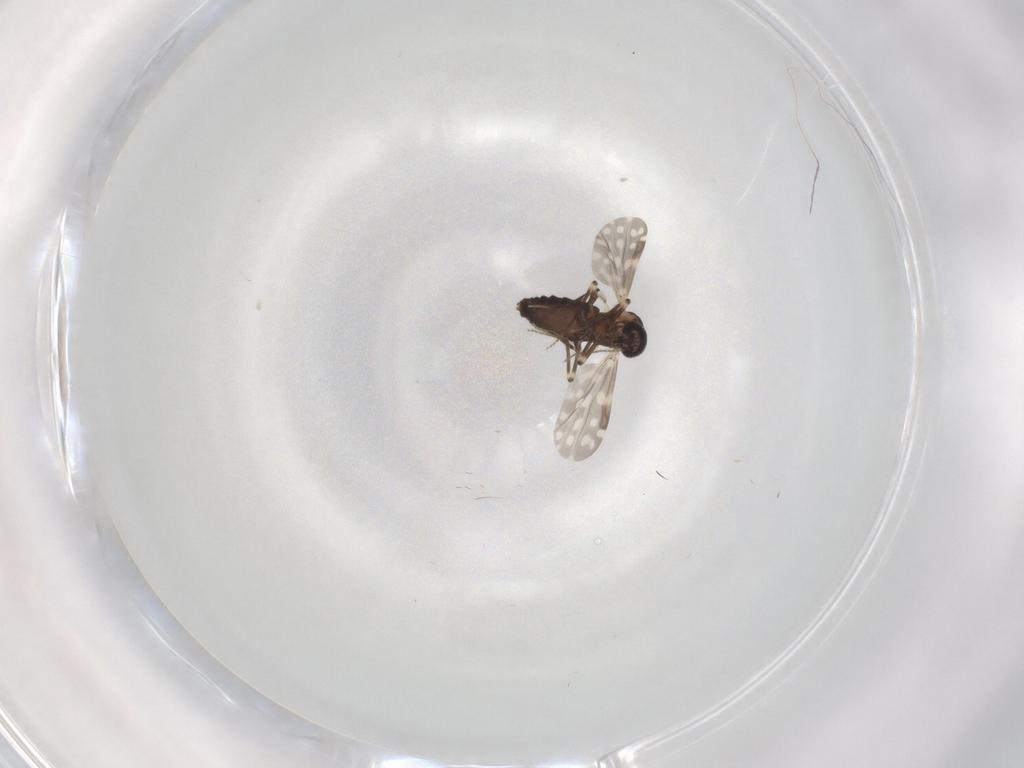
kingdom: Animalia
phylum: Arthropoda
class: Insecta
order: Diptera
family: Ceratopogonidae
